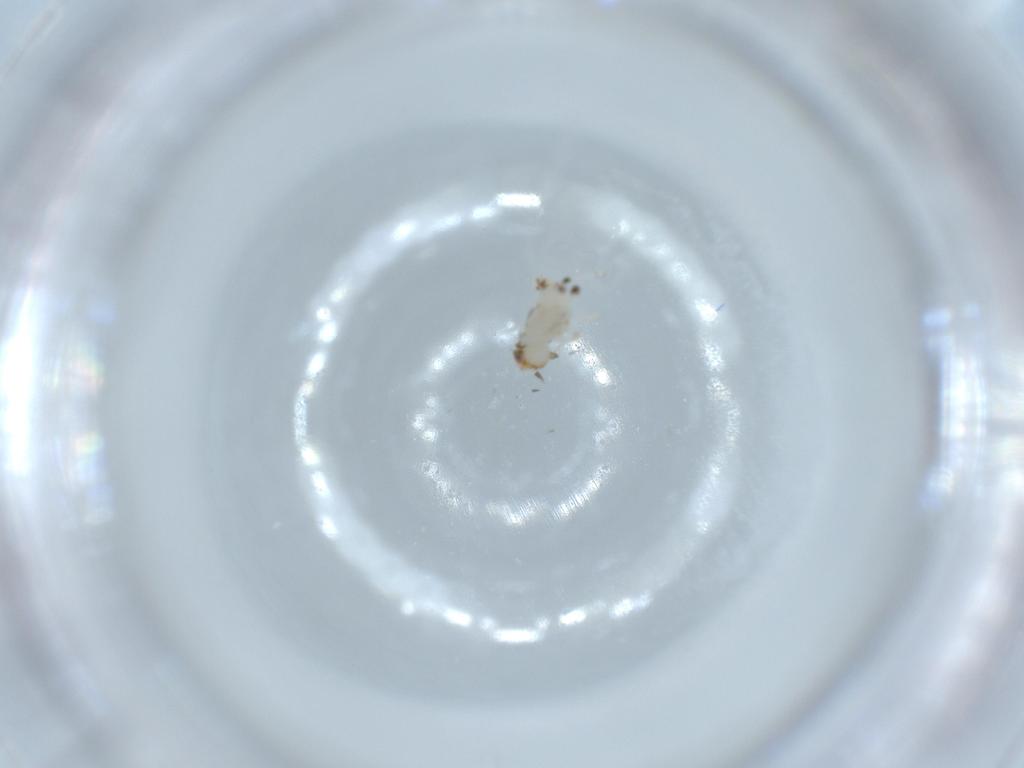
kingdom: Animalia
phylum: Arthropoda
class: Insecta
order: Hemiptera
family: Nogodinidae
